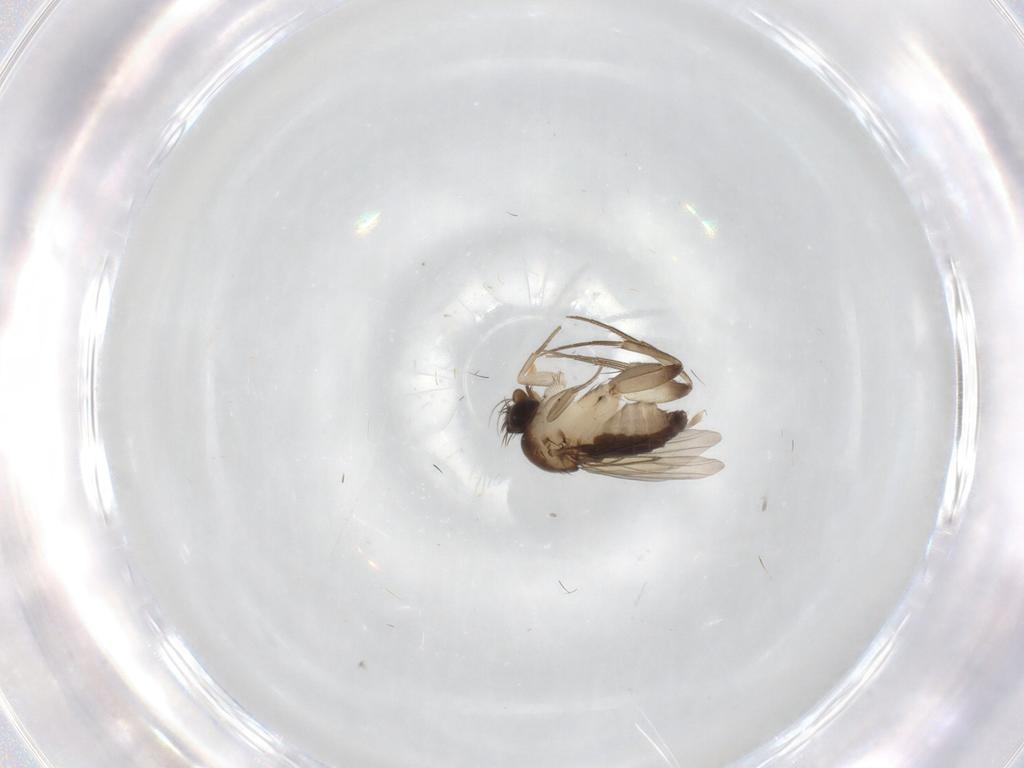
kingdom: Animalia
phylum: Arthropoda
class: Insecta
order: Diptera
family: Phoridae
